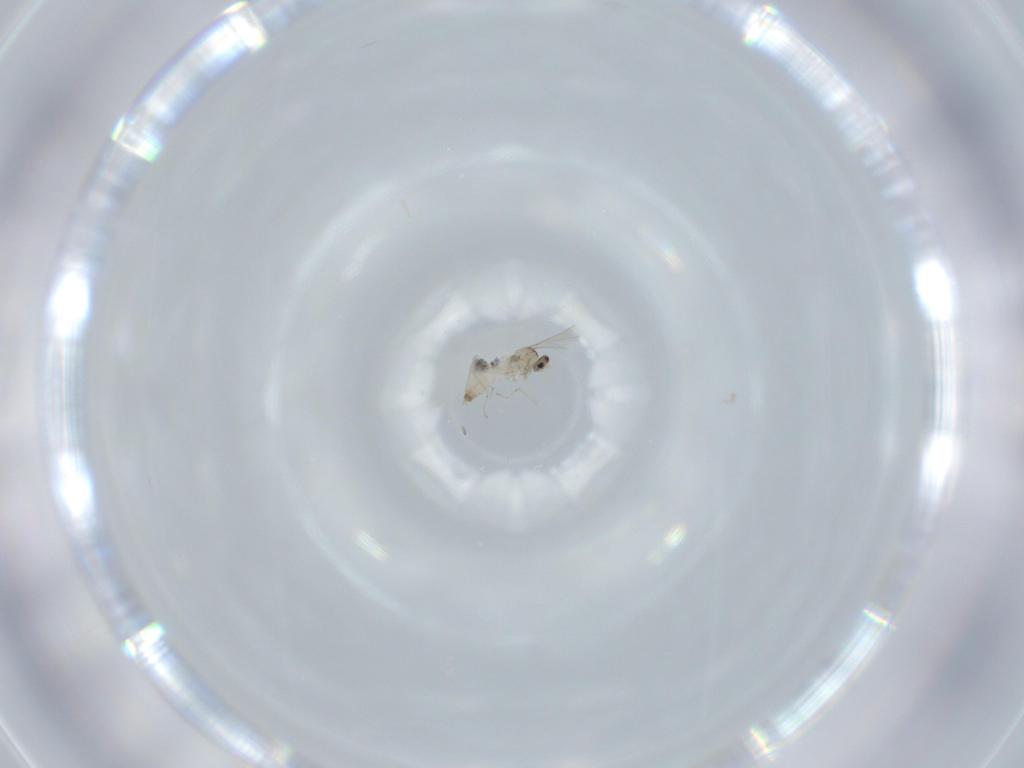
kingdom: Animalia
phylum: Arthropoda
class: Insecta
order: Diptera
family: Cecidomyiidae
